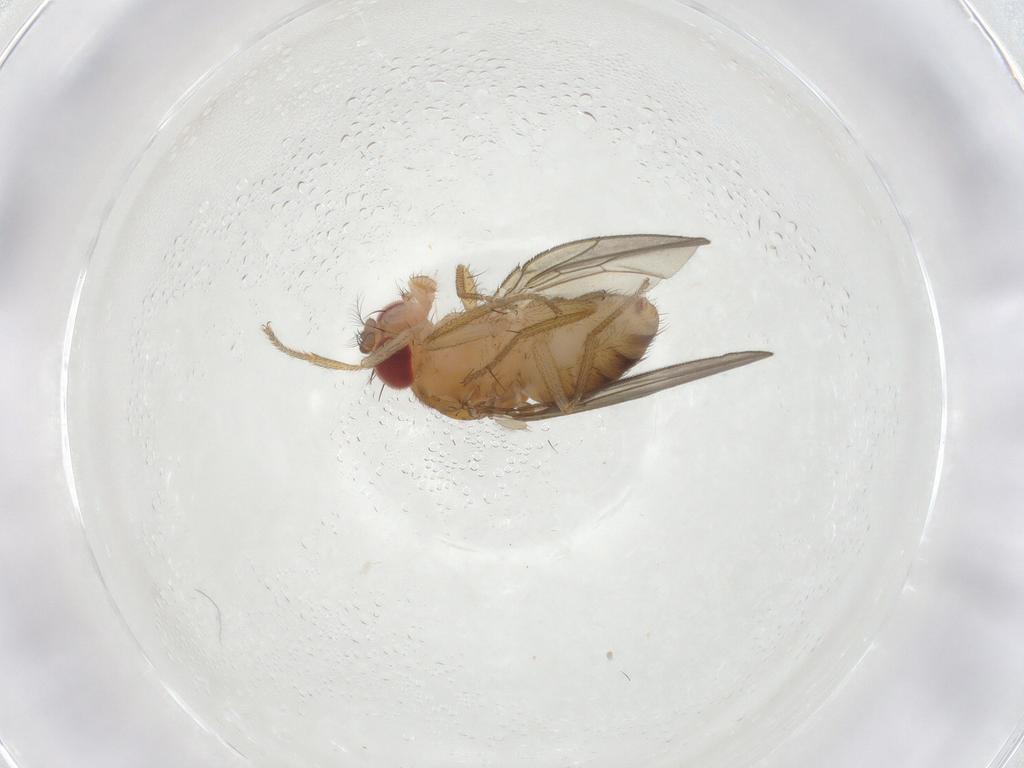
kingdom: Animalia
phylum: Arthropoda
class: Insecta
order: Diptera
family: Drosophilidae
